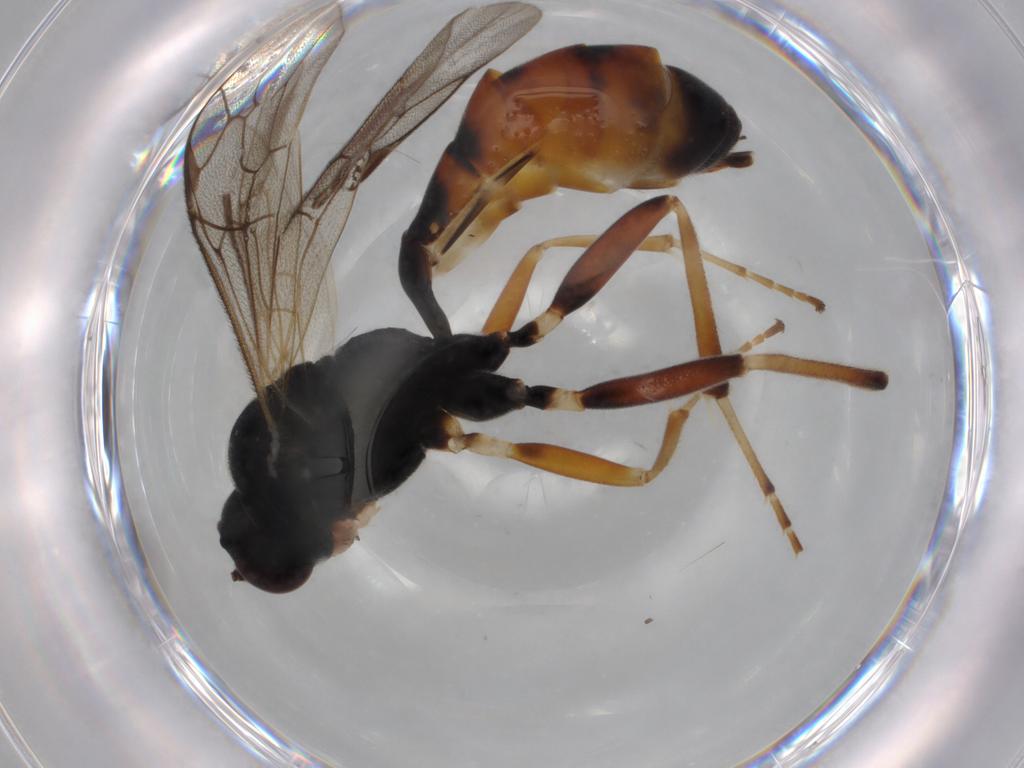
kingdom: Animalia
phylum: Arthropoda
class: Insecta
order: Hymenoptera
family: Ichneumonidae
